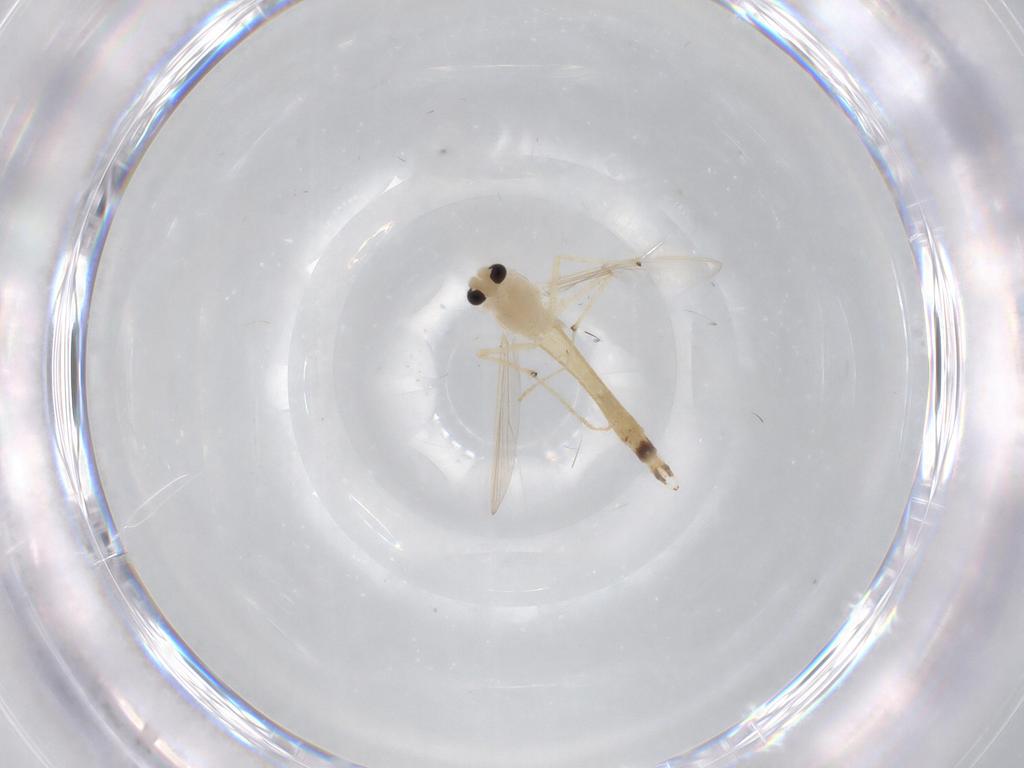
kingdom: Animalia
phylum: Arthropoda
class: Insecta
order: Diptera
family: Chironomidae
